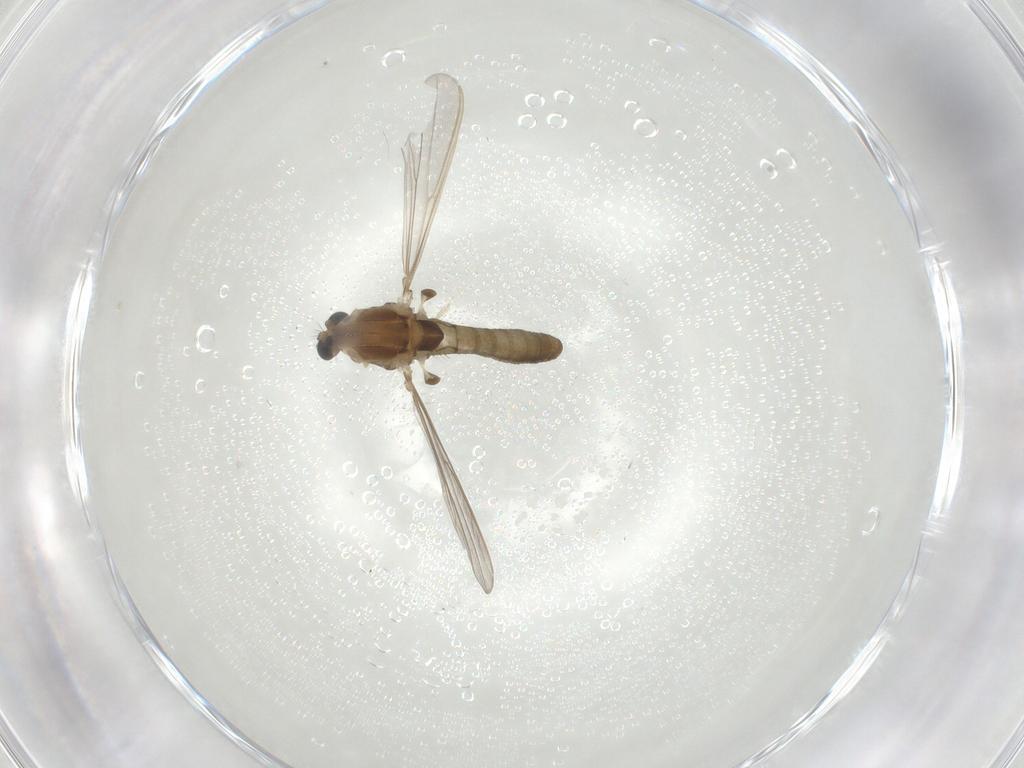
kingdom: Animalia
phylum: Arthropoda
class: Insecta
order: Diptera
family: Chironomidae
